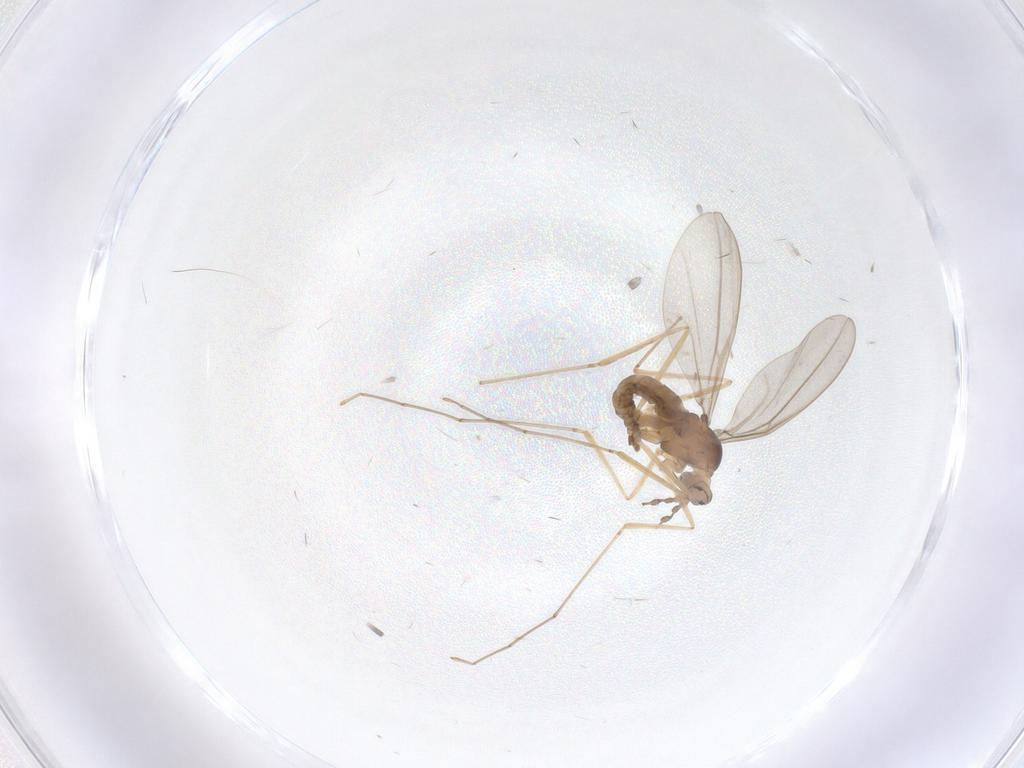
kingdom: Animalia
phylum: Arthropoda
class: Insecta
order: Diptera
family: Cecidomyiidae
